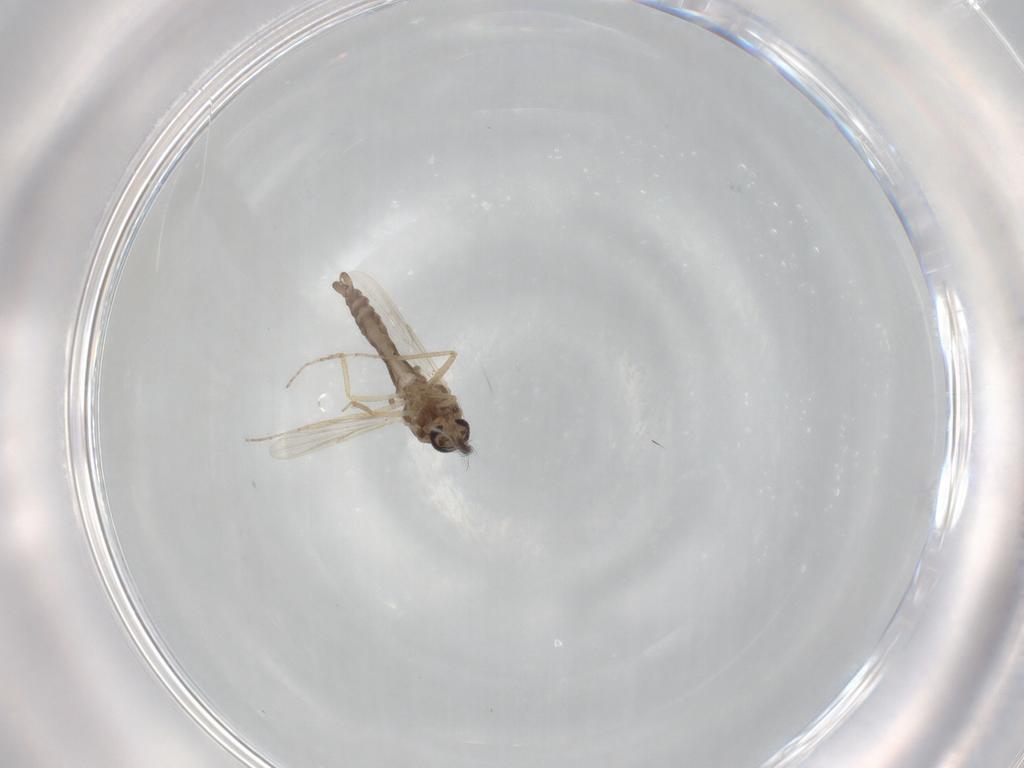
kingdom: Animalia
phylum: Arthropoda
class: Insecta
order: Diptera
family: Ceratopogonidae
